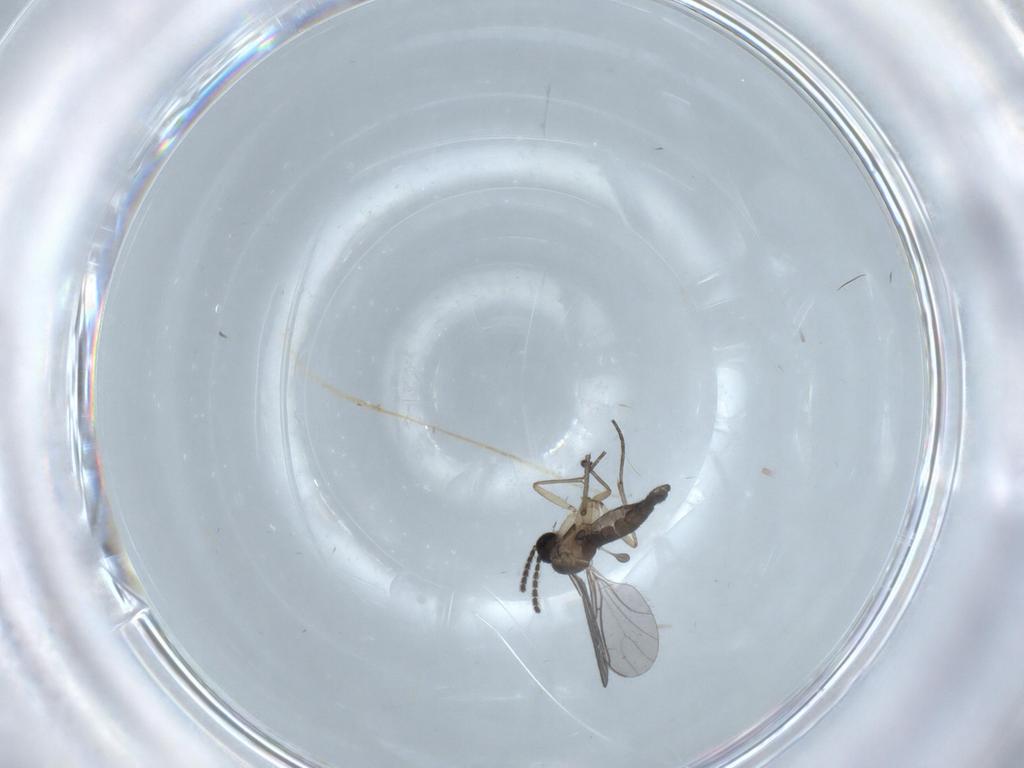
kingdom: Animalia
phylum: Arthropoda
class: Insecta
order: Diptera
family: Sciaridae
